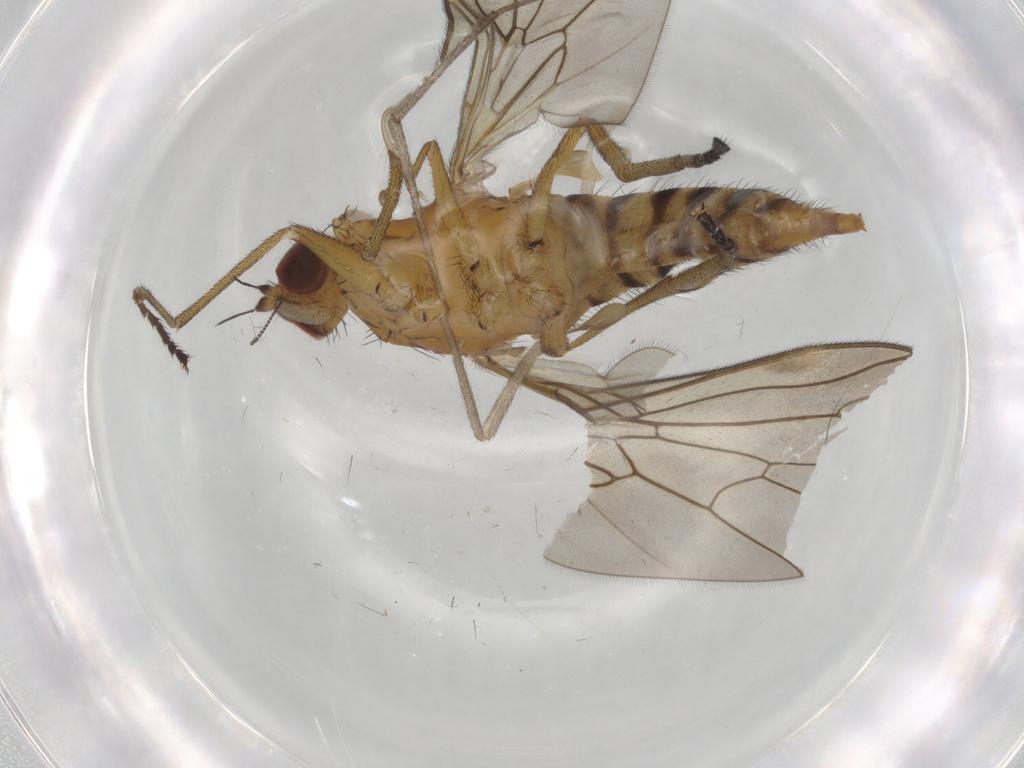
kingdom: Animalia
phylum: Arthropoda
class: Insecta
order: Diptera
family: Brachystomatidae
